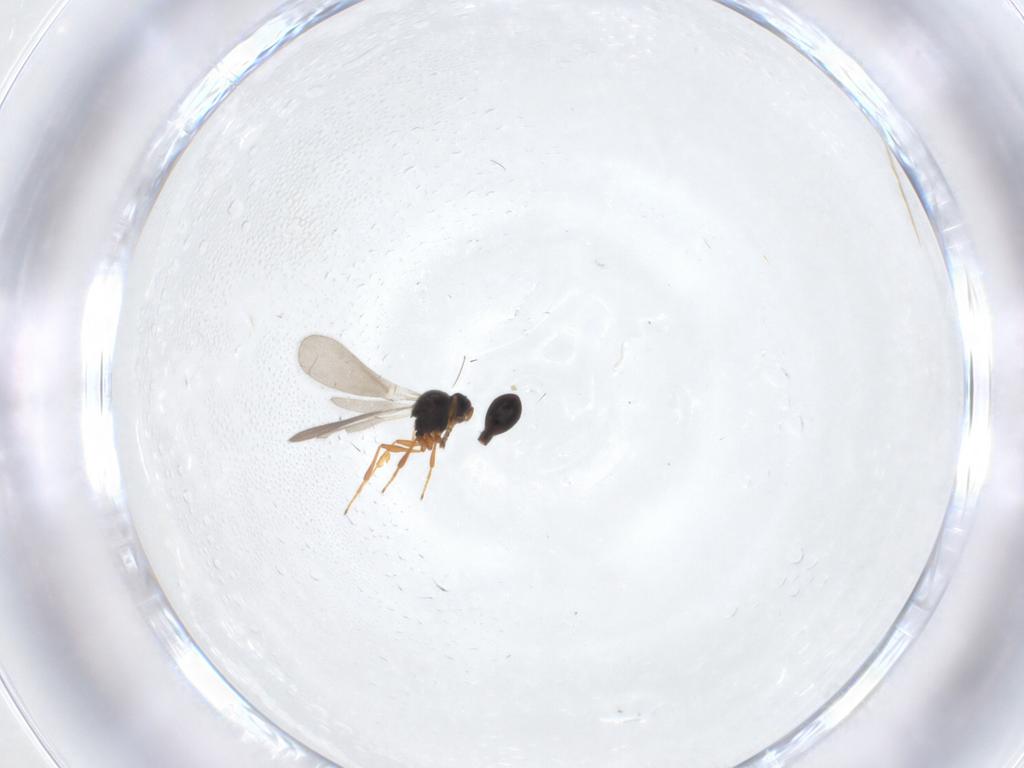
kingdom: Animalia
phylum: Arthropoda
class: Insecta
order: Hymenoptera
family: Platygastridae
